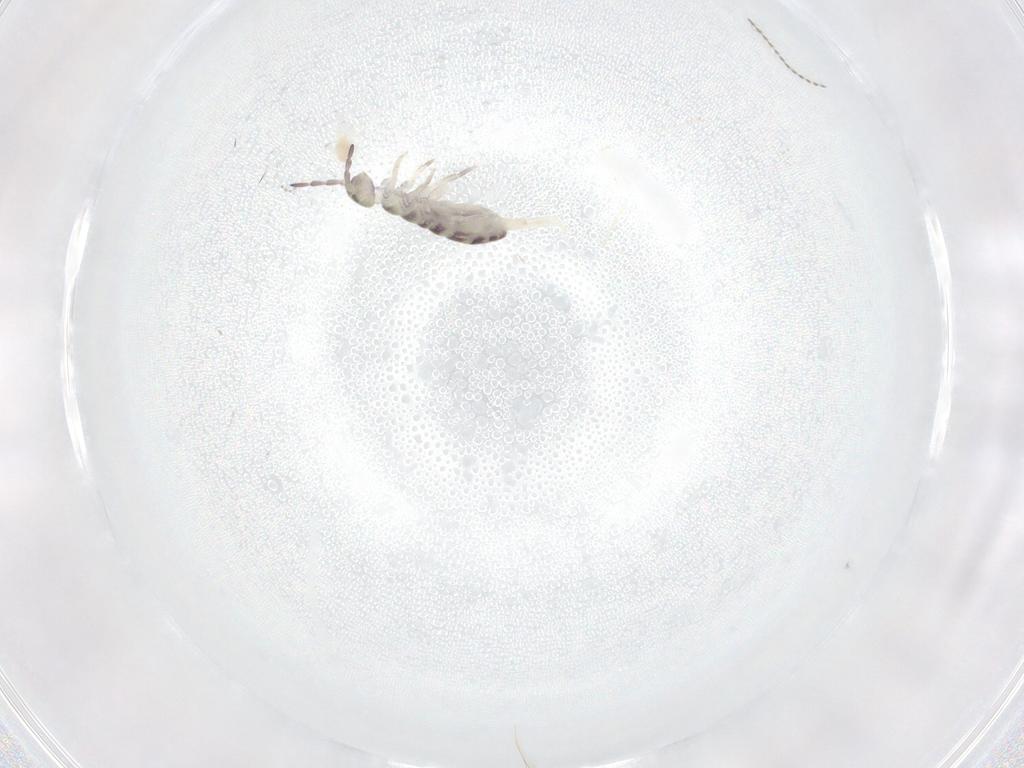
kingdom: Animalia
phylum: Arthropoda
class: Collembola
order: Entomobryomorpha
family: Isotomidae
